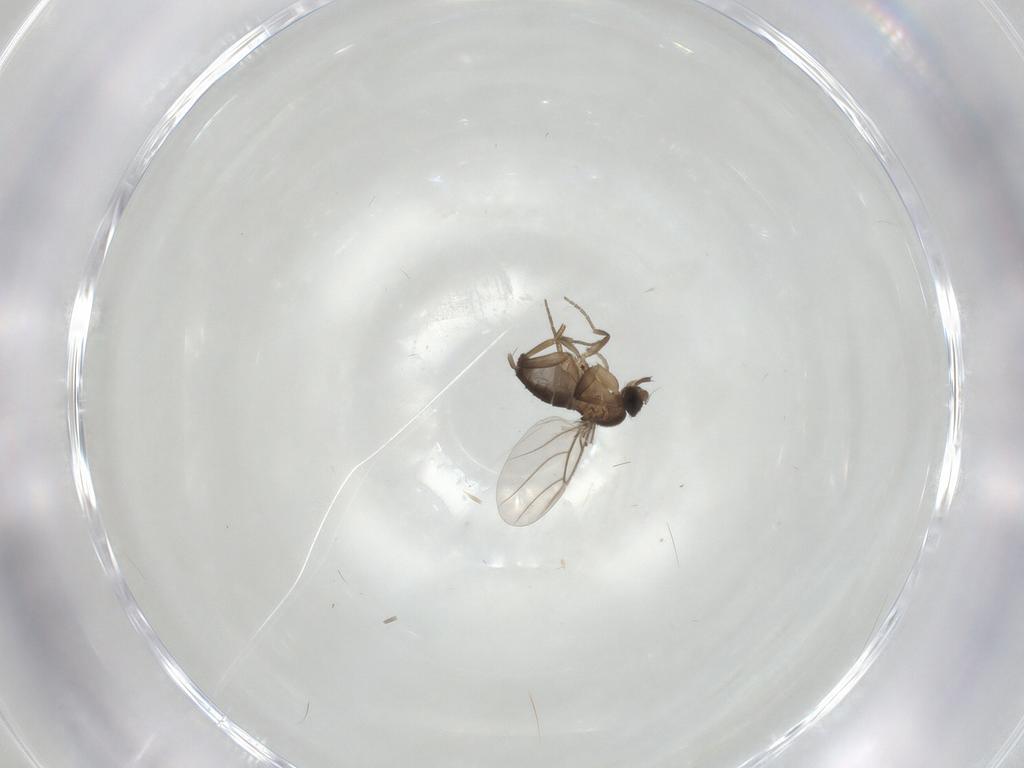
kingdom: Animalia
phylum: Arthropoda
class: Insecta
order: Diptera
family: Phoridae
